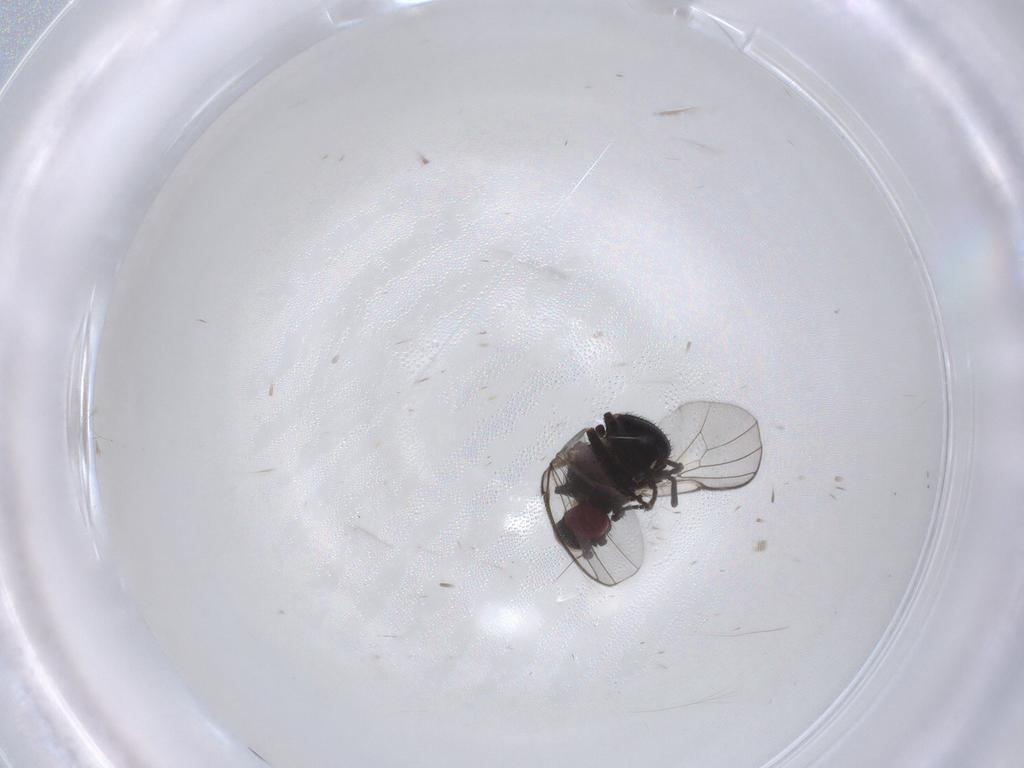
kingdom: Animalia
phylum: Arthropoda
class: Insecta
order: Diptera
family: Agromyzidae
